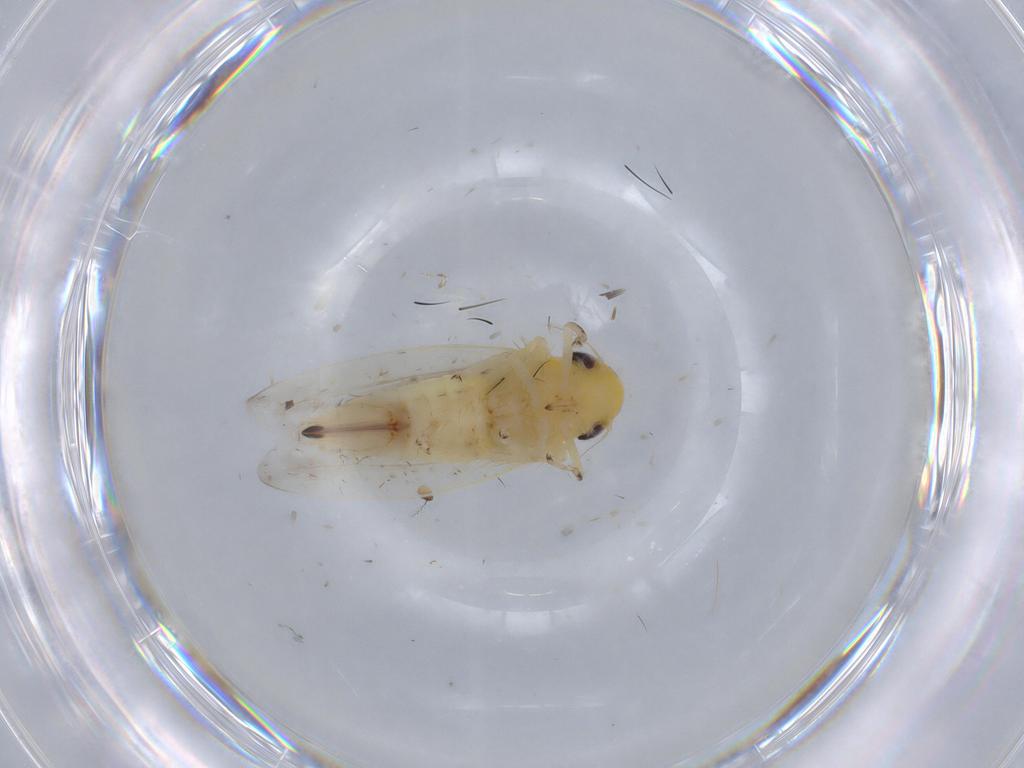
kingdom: Animalia
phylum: Arthropoda
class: Insecta
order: Hemiptera
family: Cicadellidae
